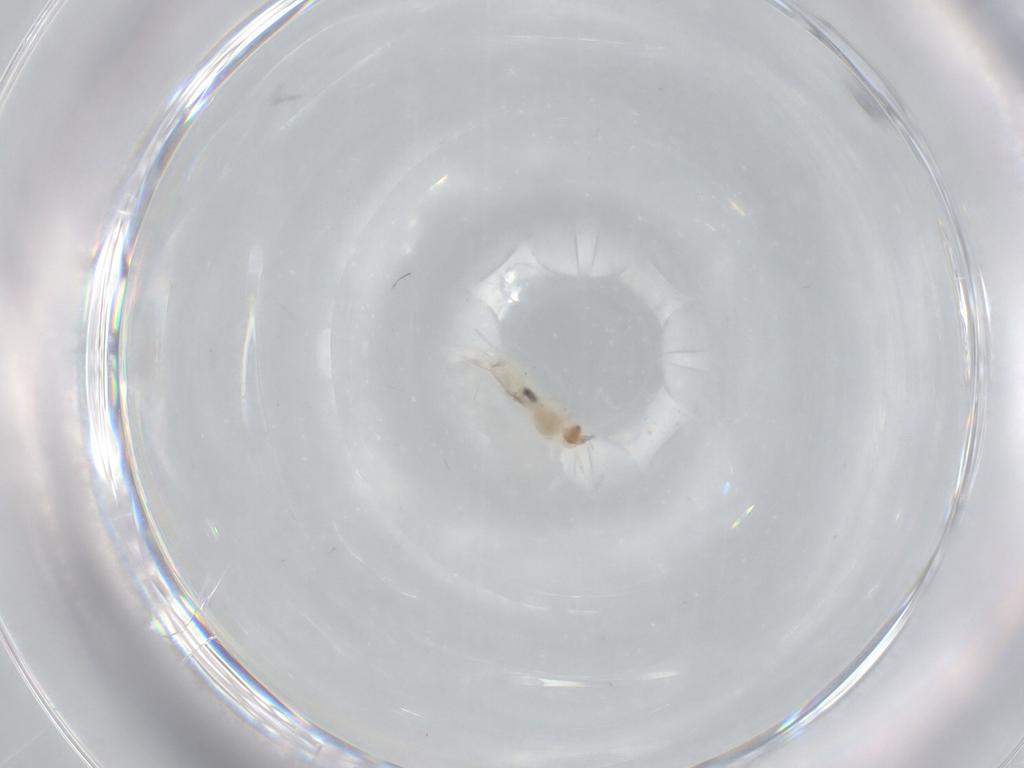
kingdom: Animalia
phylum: Arthropoda
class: Insecta
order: Diptera
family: Cecidomyiidae
